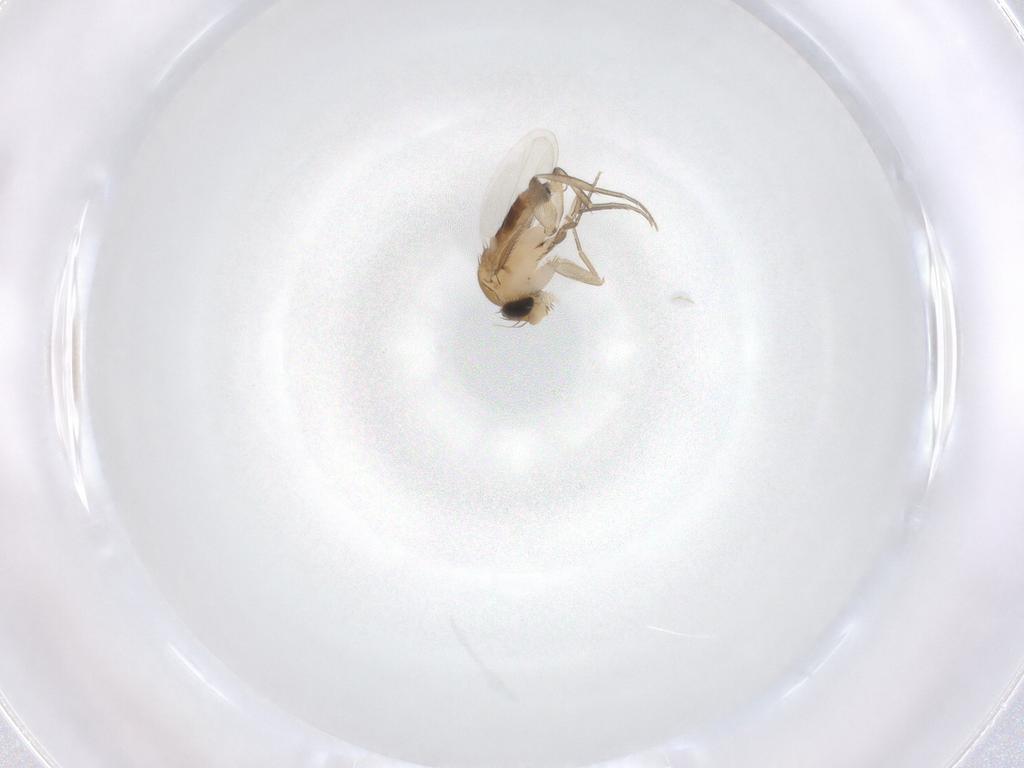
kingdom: Animalia
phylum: Arthropoda
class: Insecta
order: Diptera
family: Phoridae
